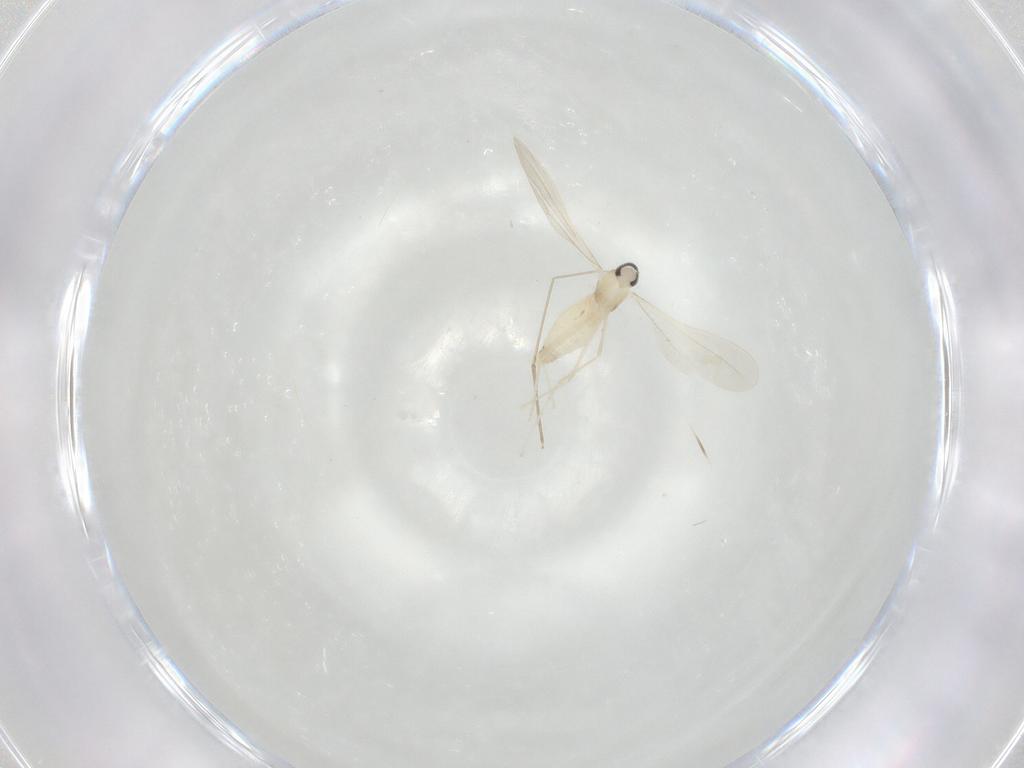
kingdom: Animalia
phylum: Arthropoda
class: Insecta
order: Diptera
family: Cecidomyiidae
